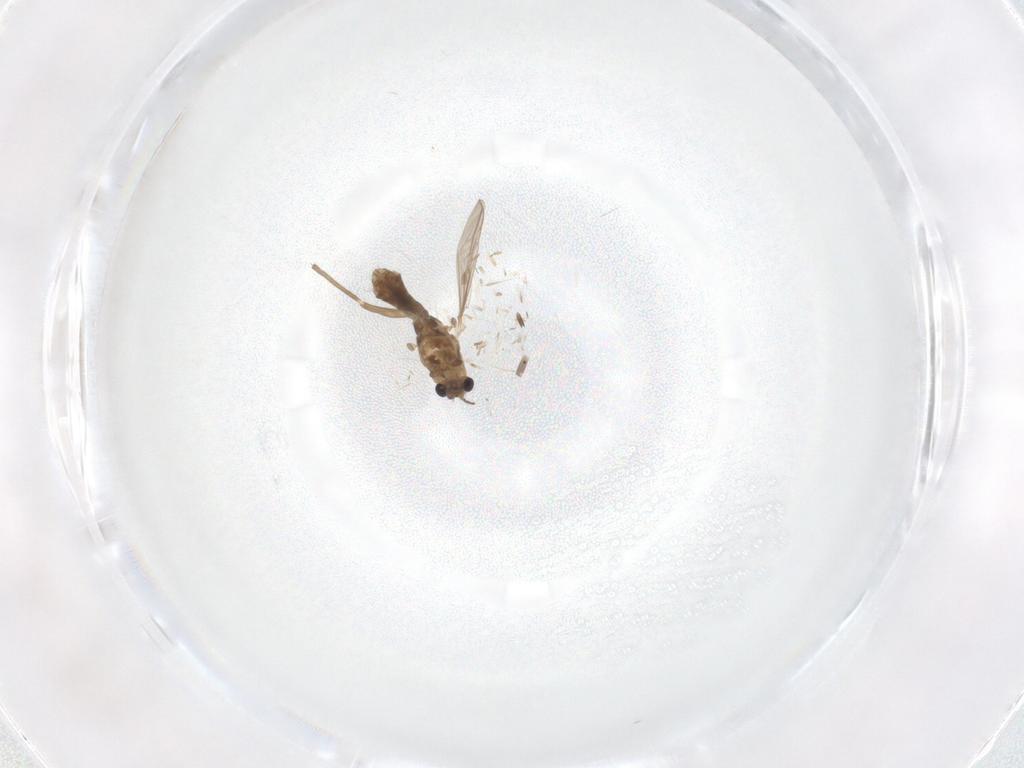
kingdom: Animalia
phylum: Arthropoda
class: Insecta
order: Diptera
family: Chironomidae
